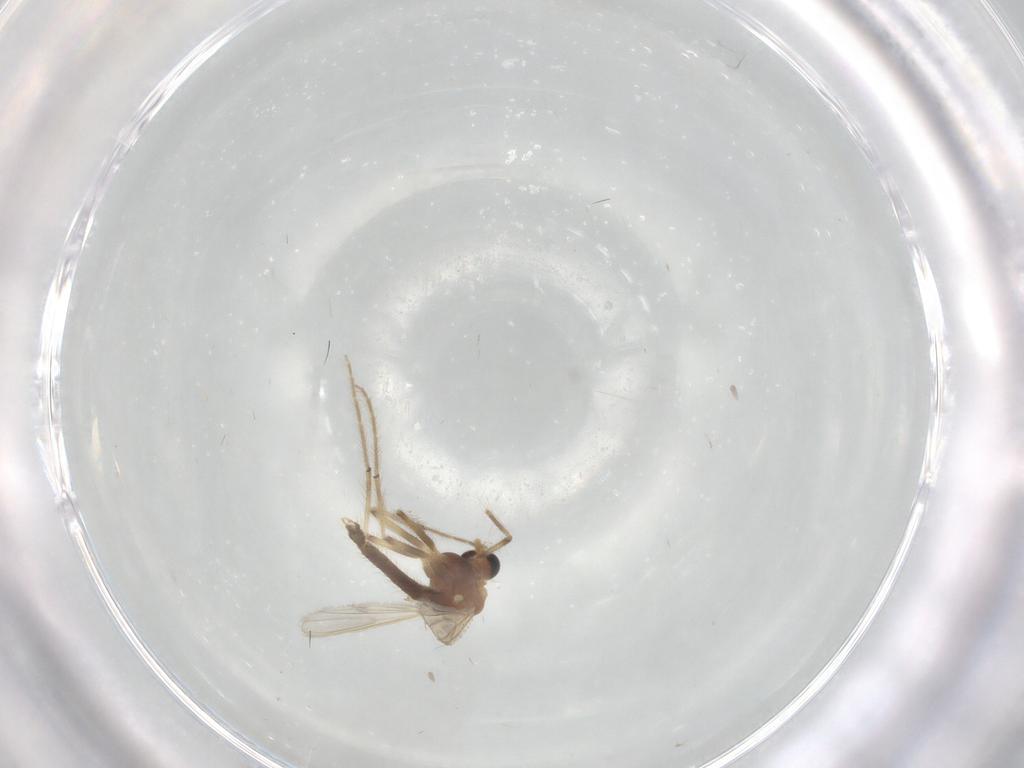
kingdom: Animalia
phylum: Arthropoda
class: Insecta
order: Diptera
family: Chironomidae
